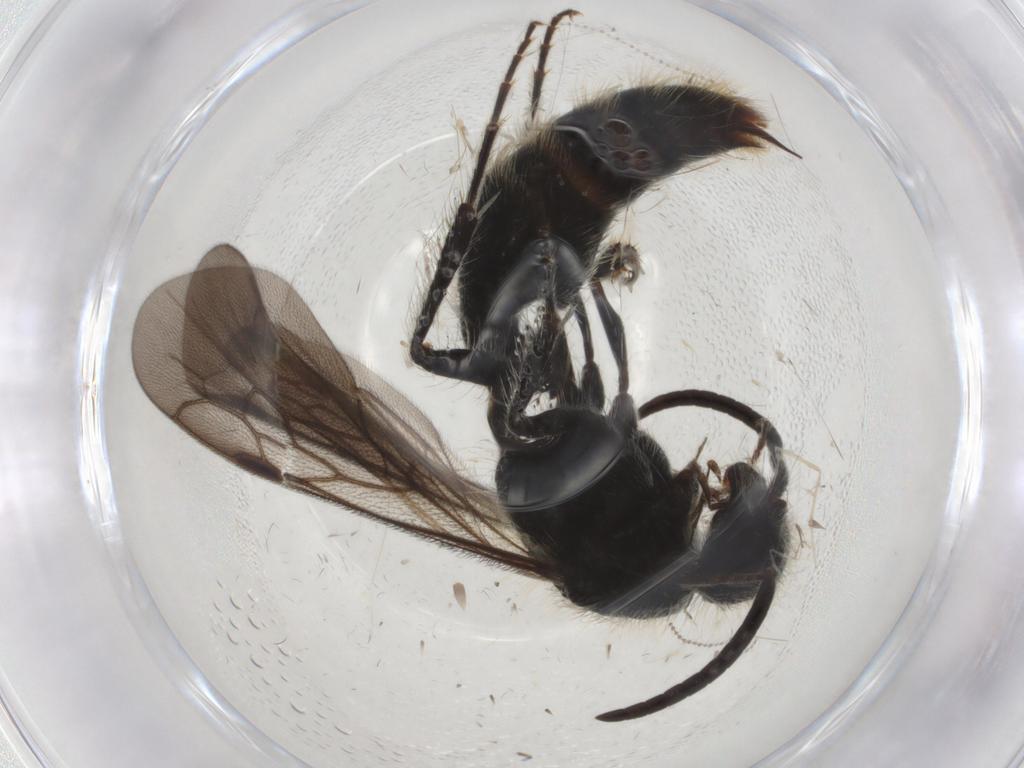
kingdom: Animalia
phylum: Arthropoda
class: Insecta
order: Hymenoptera
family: Mutillidae
